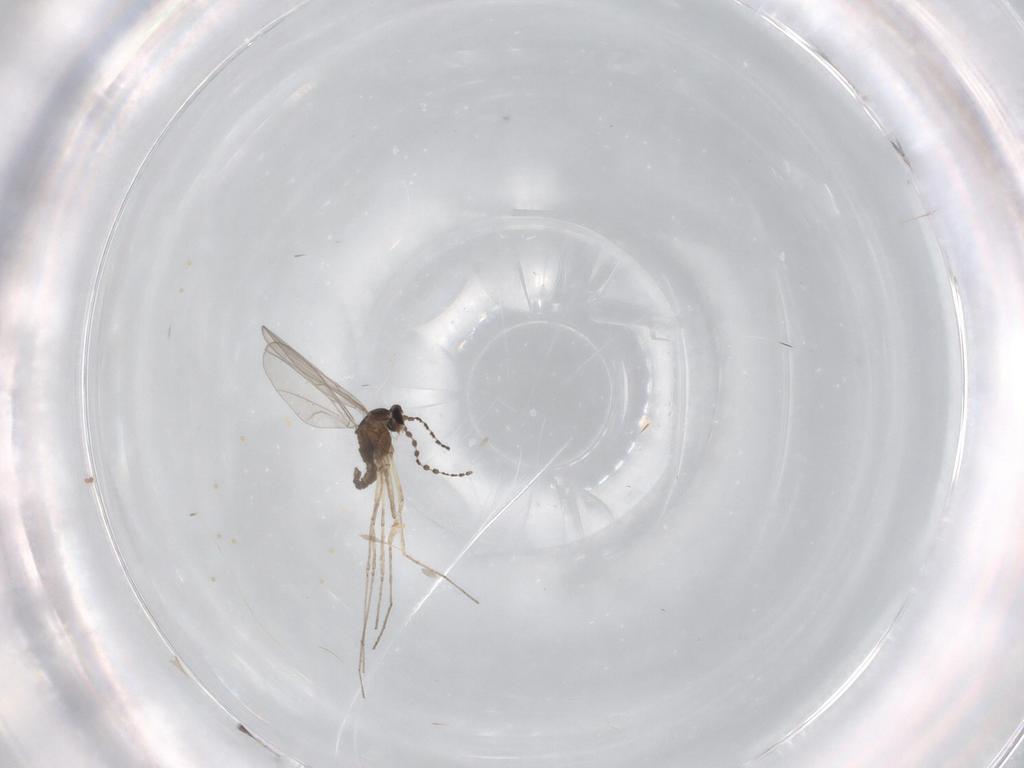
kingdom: Animalia
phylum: Arthropoda
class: Insecta
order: Diptera
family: Cecidomyiidae
